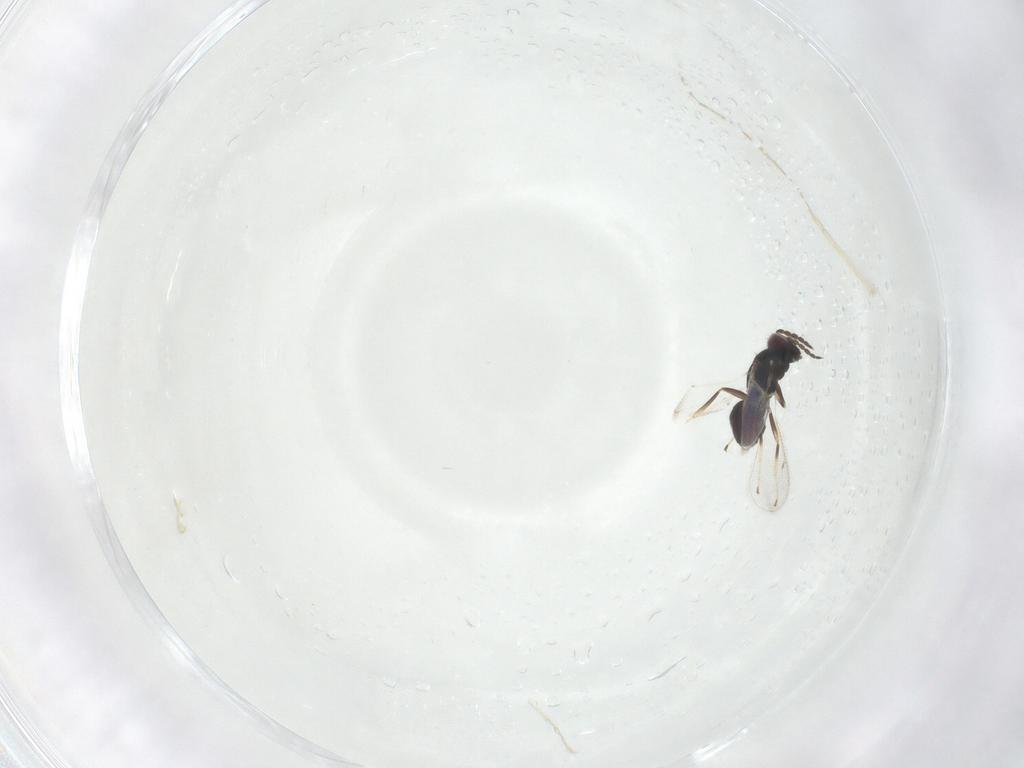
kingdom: Animalia
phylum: Arthropoda
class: Insecta
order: Hymenoptera
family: Eulophidae
